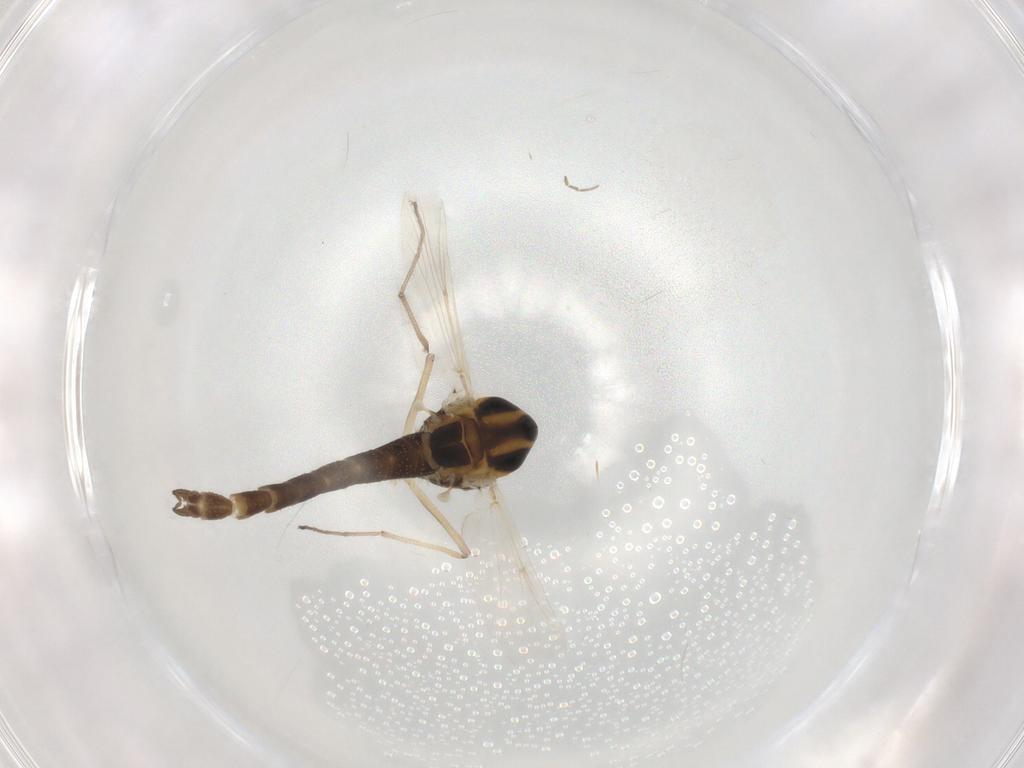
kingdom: Animalia
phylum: Arthropoda
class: Insecta
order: Diptera
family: Chironomidae
